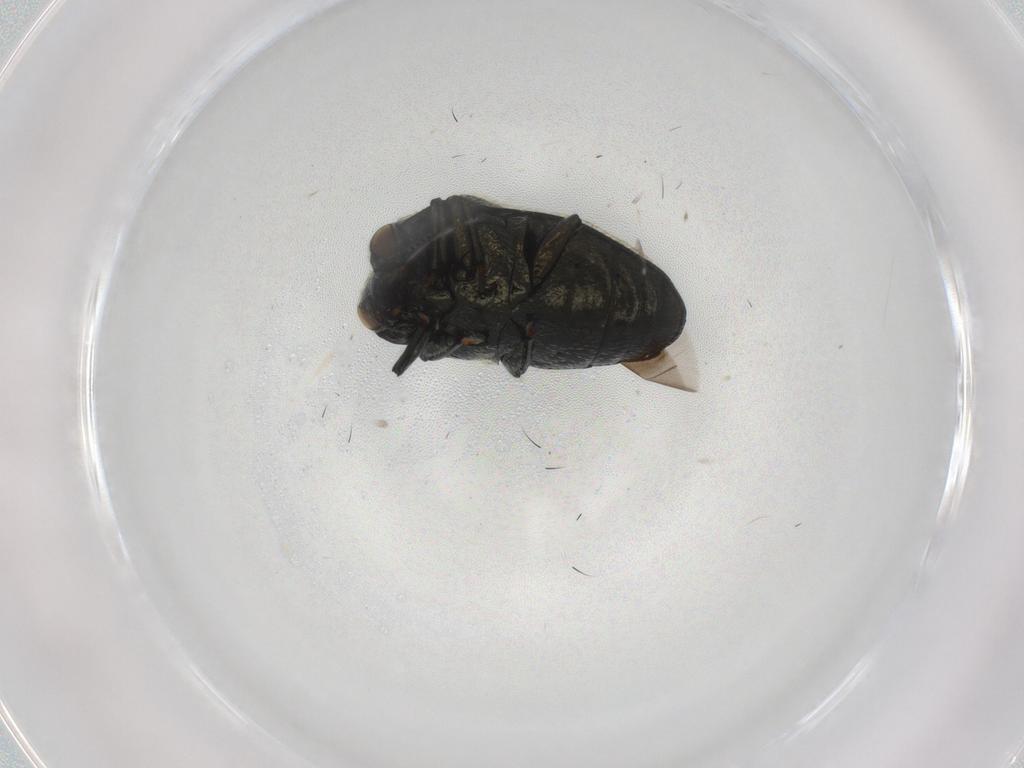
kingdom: Animalia
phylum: Arthropoda
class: Insecta
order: Coleoptera
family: Buprestidae
